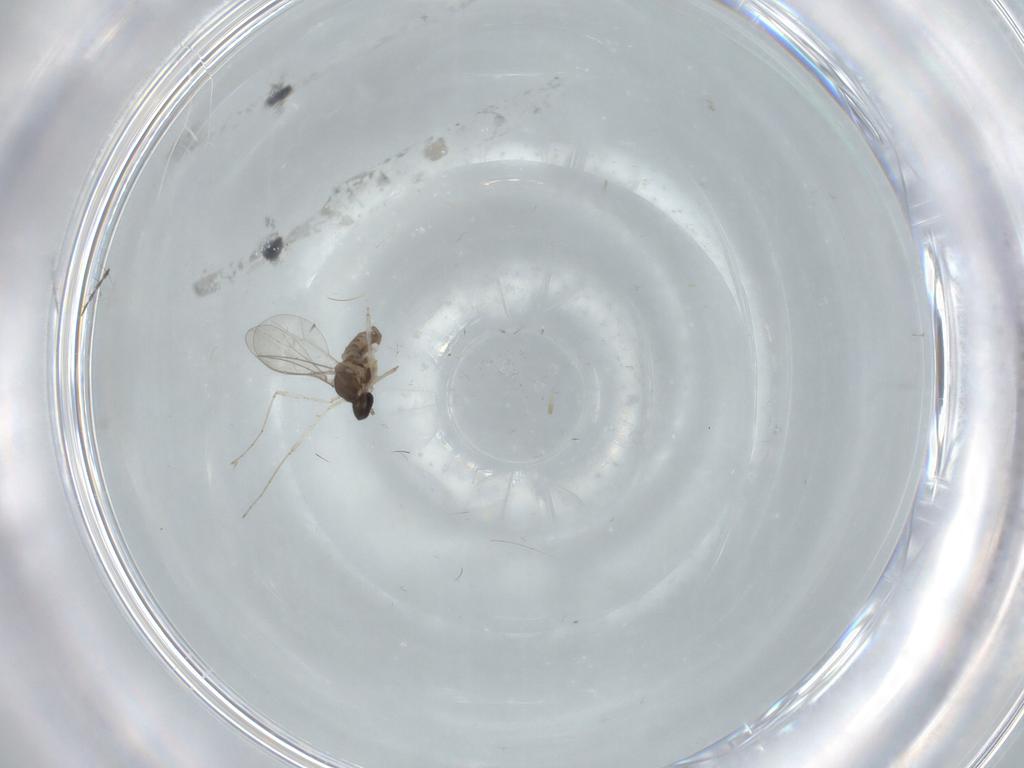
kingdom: Animalia
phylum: Arthropoda
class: Insecta
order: Diptera
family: Cecidomyiidae
